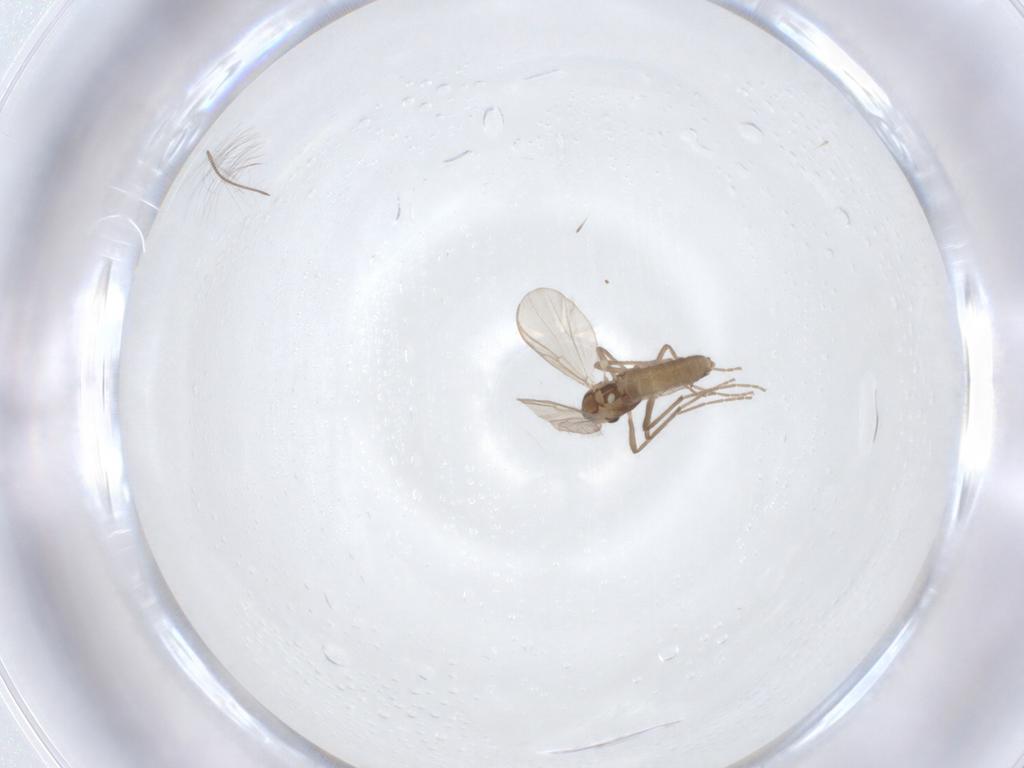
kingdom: Animalia
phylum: Arthropoda
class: Insecta
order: Diptera
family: Chironomidae
